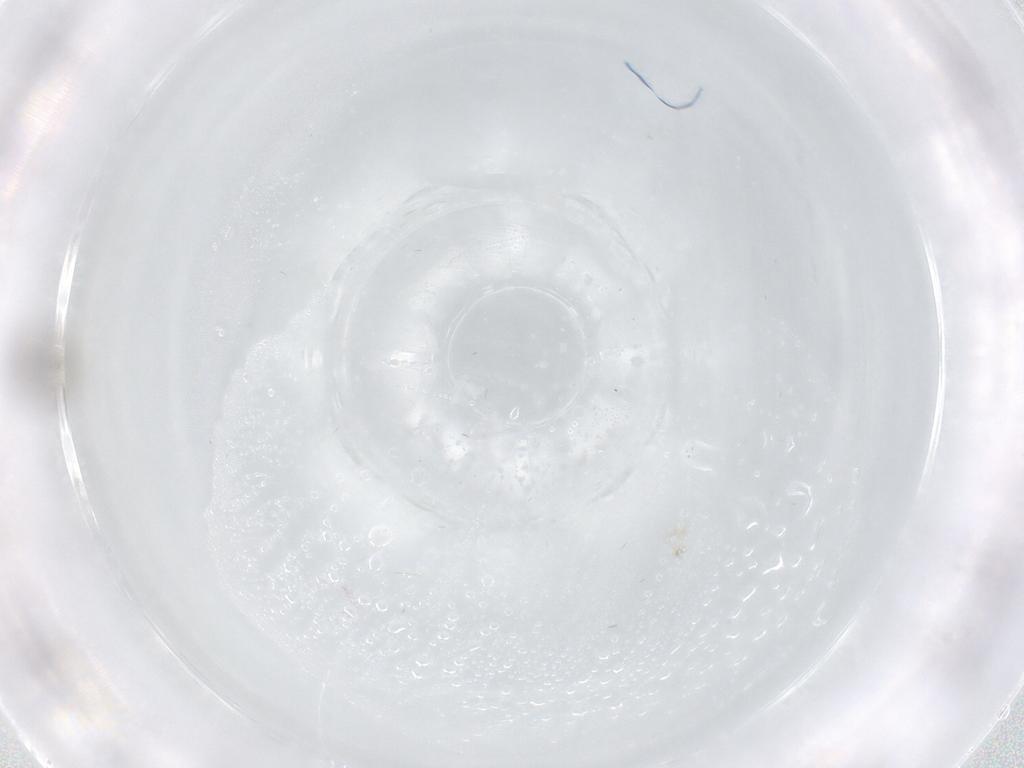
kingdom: Animalia
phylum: Arthropoda
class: Insecta
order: Diptera
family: Chironomidae
